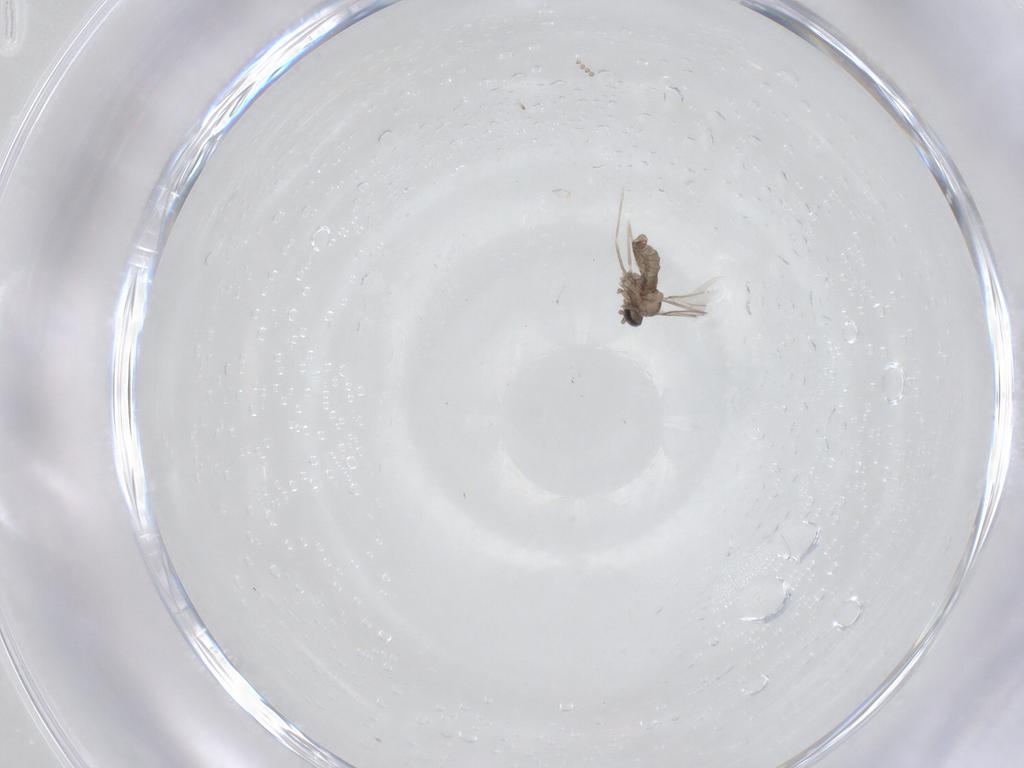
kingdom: Animalia
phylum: Arthropoda
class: Insecta
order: Diptera
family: Psychodidae
